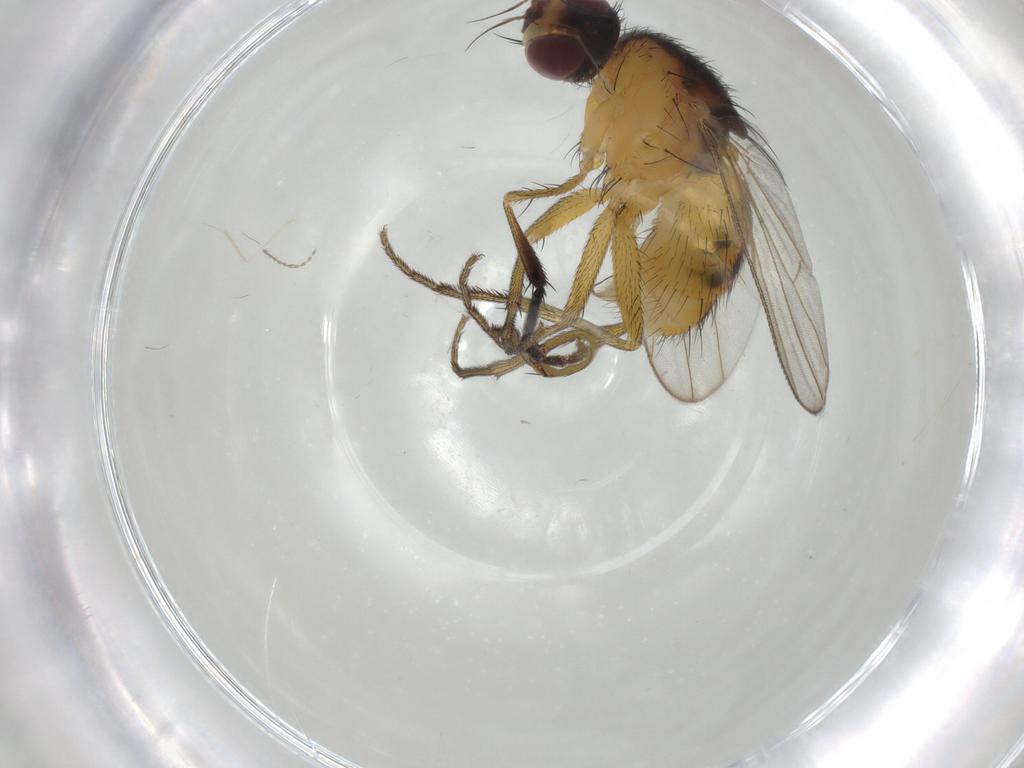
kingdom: Animalia
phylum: Arthropoda
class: Insecta
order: Diptera
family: Muscidae
